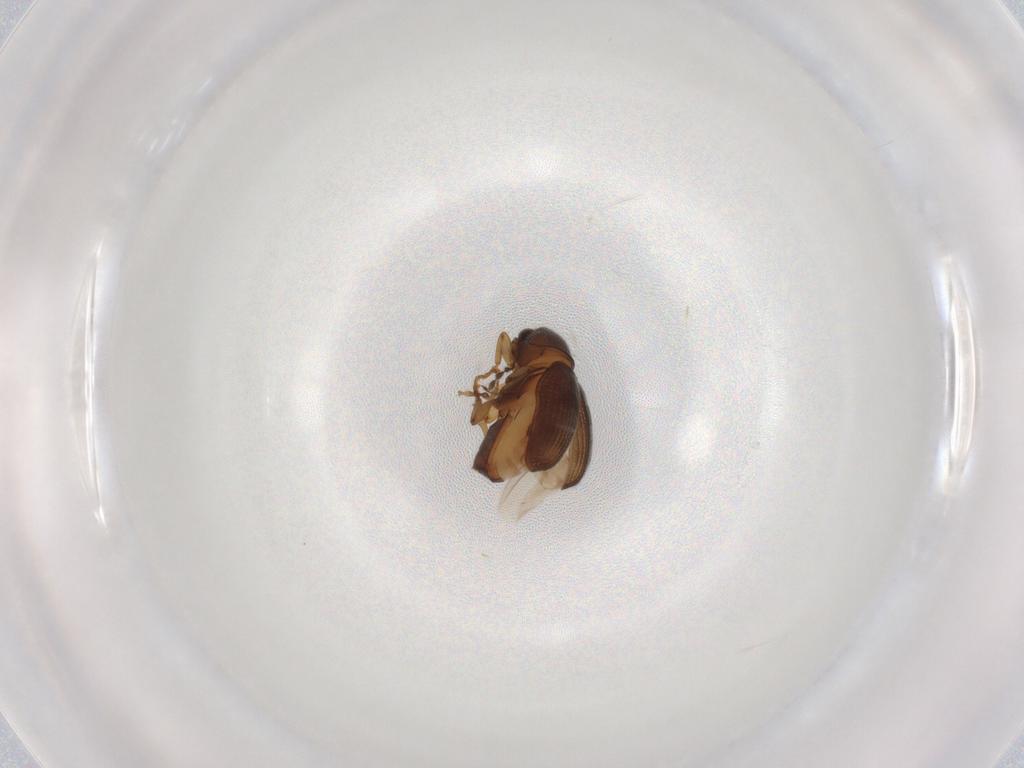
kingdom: Animalia
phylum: Arthropoda
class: Insecta
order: Coleoptera
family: Anthribidae
